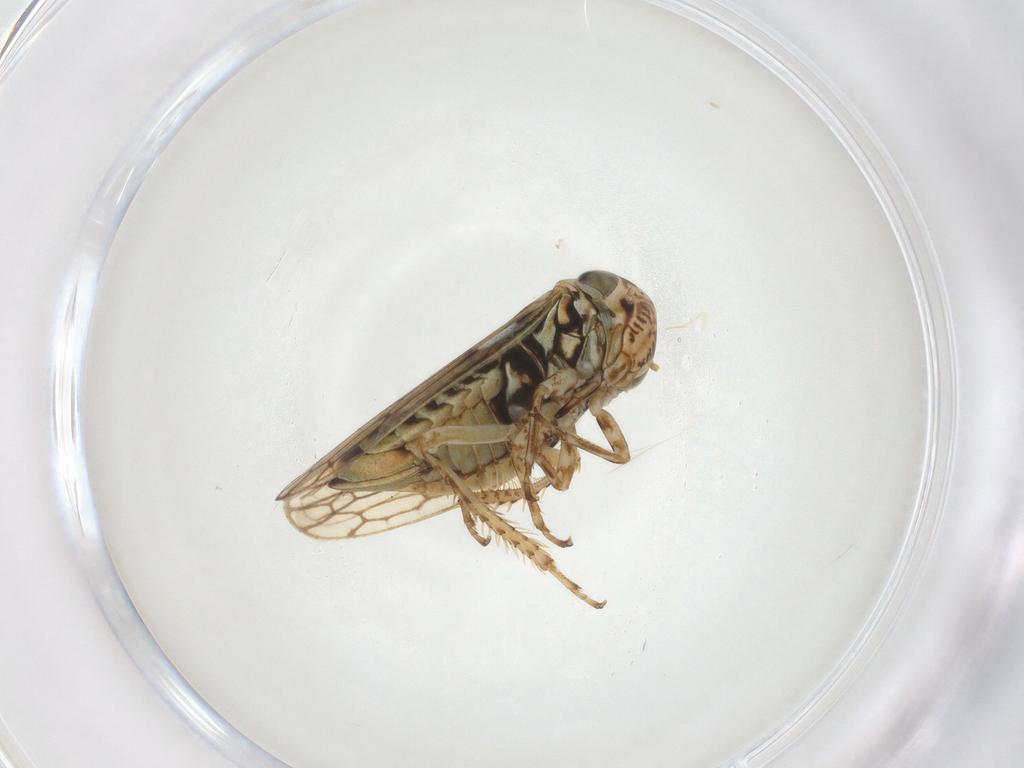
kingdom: Animalia
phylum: Arthropoda
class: Insecta
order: Hemiptera
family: Cicadellidae
